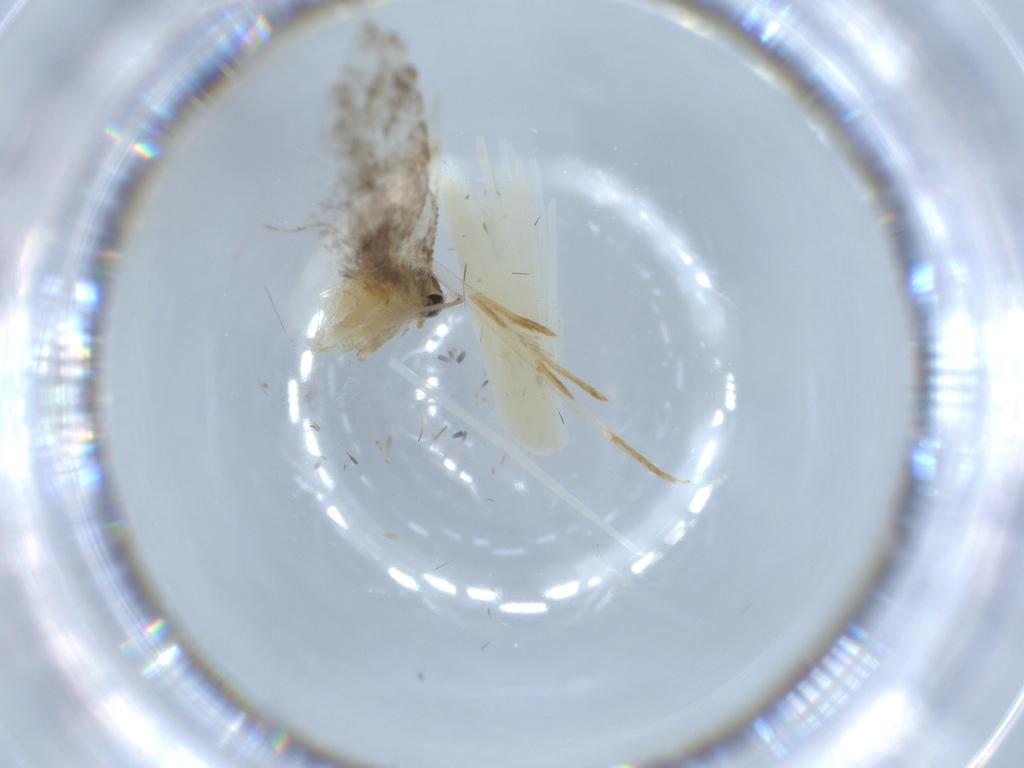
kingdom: Animalia
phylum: Arthropoda
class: Insecta
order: Lepidoptera
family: Tineidae
